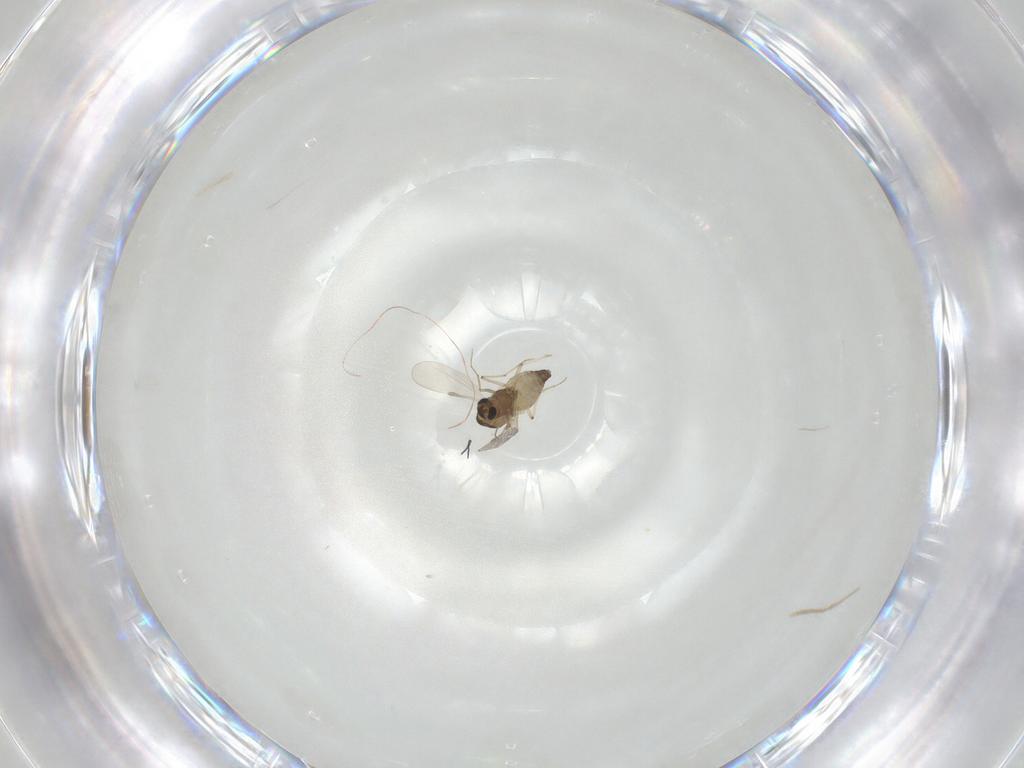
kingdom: Animalia
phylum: Arthropoda
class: Insecta
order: Diptera
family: Chironomidae
